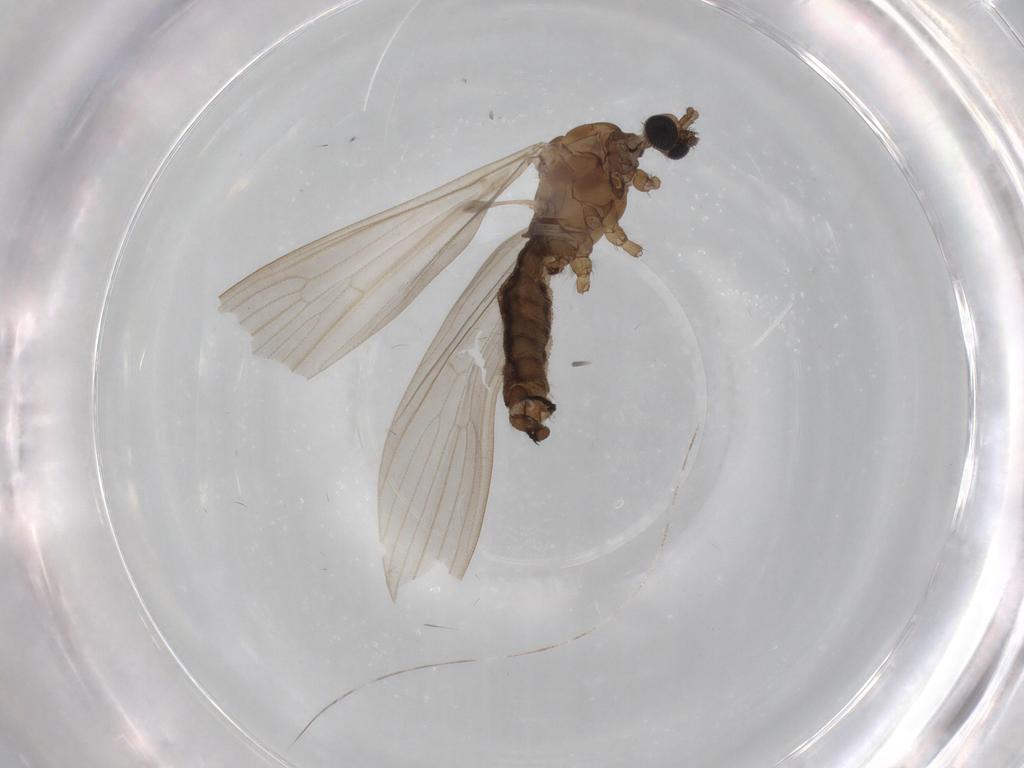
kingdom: Animalia
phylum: Arthropoda
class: Insecta
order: Diptera
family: Limoniidae
